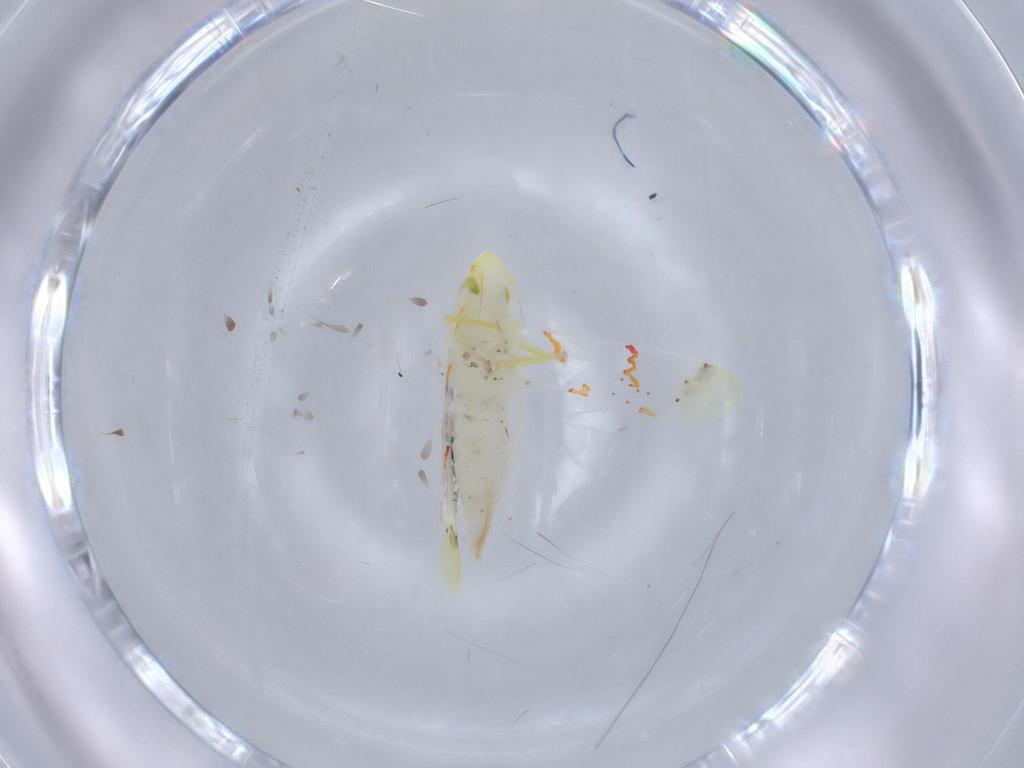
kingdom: Animalia
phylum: Arthropoda
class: Insecta
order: Hemiptera
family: Cicadellidae
